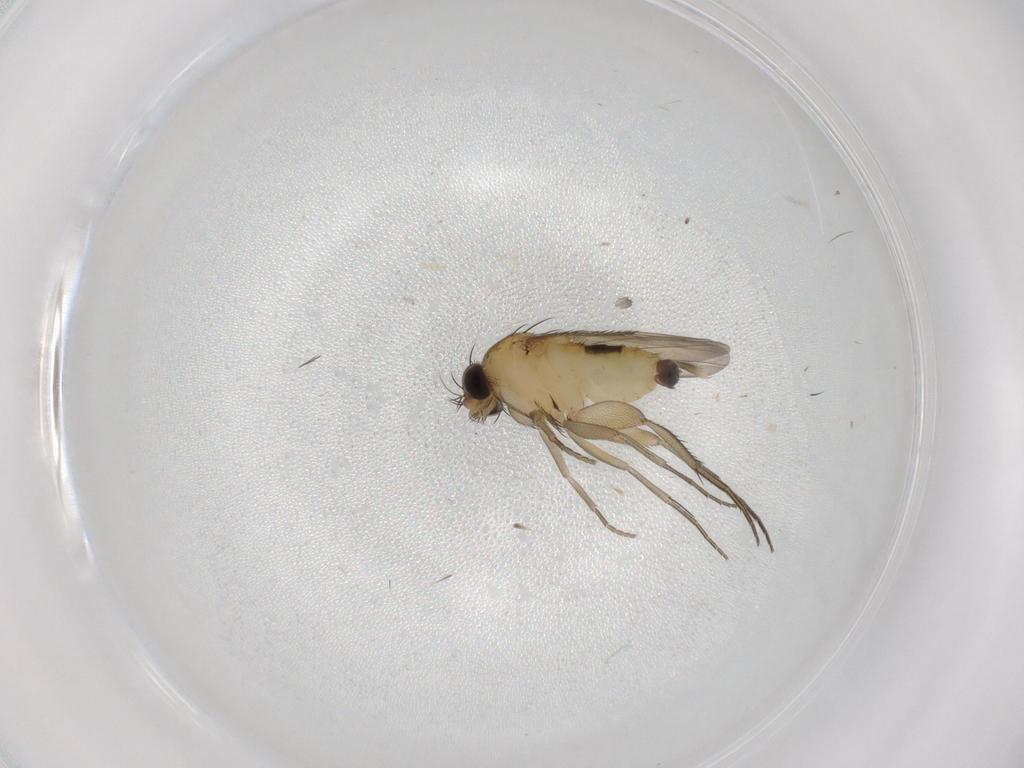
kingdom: Animalia
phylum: Arthropoda
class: Insecta
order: Diptera
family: Phoridae
